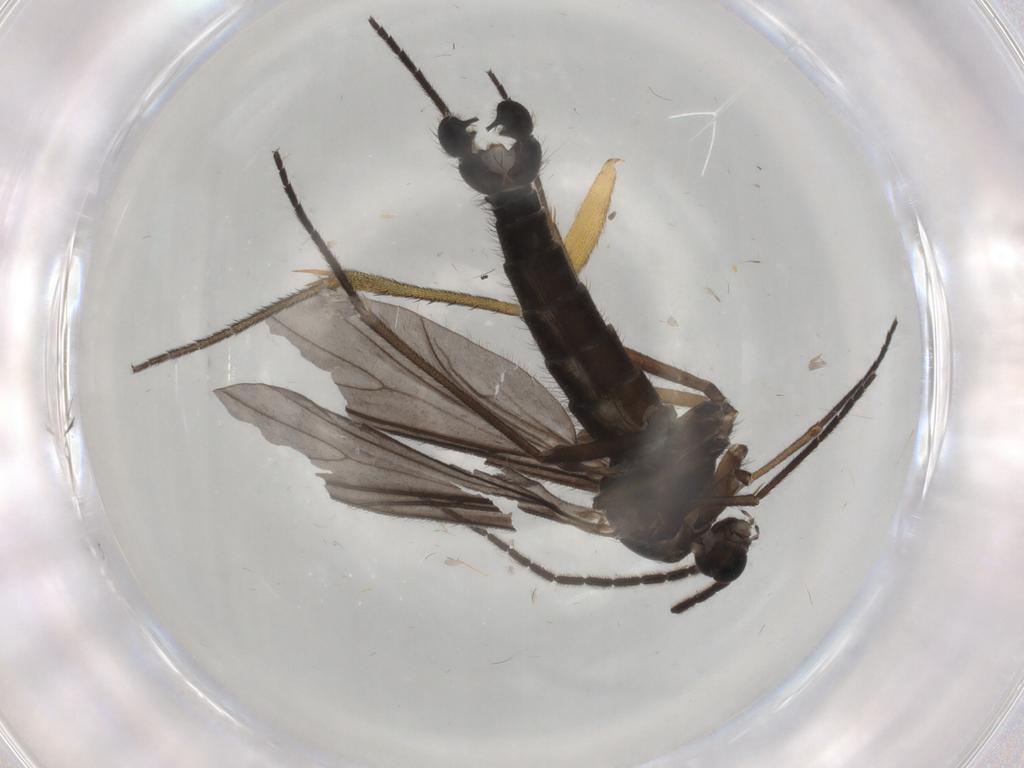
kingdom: Animalia
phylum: Arthropoda
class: Insecta
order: Diptera
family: Sciaridae
